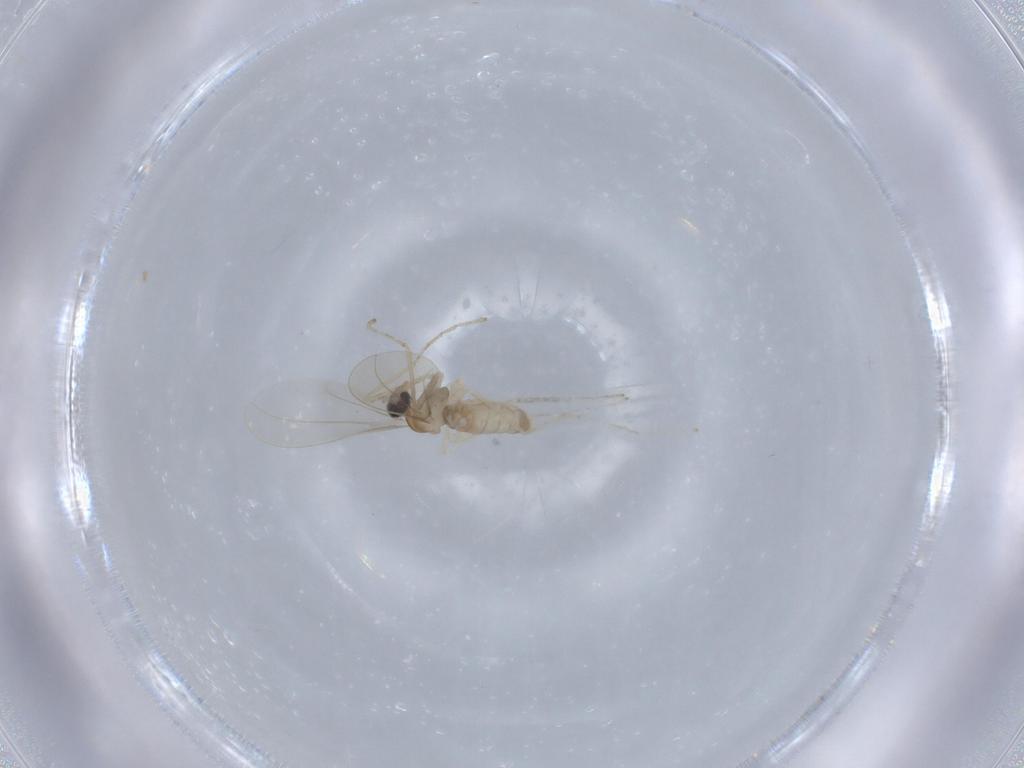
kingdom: Animalia
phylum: Arthropoda
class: Insecta
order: Diptera
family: Cecidomyiidae
